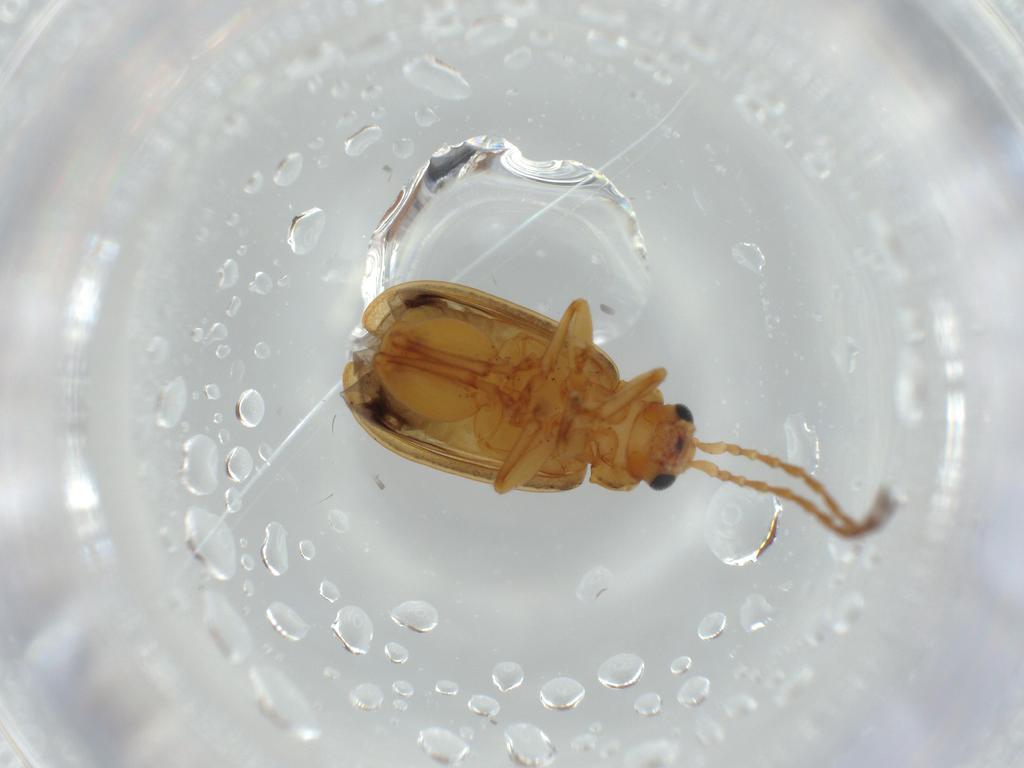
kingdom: Animalia
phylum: Arthropoda
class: Insecta
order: Coleoptera
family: Chrysomelidae
